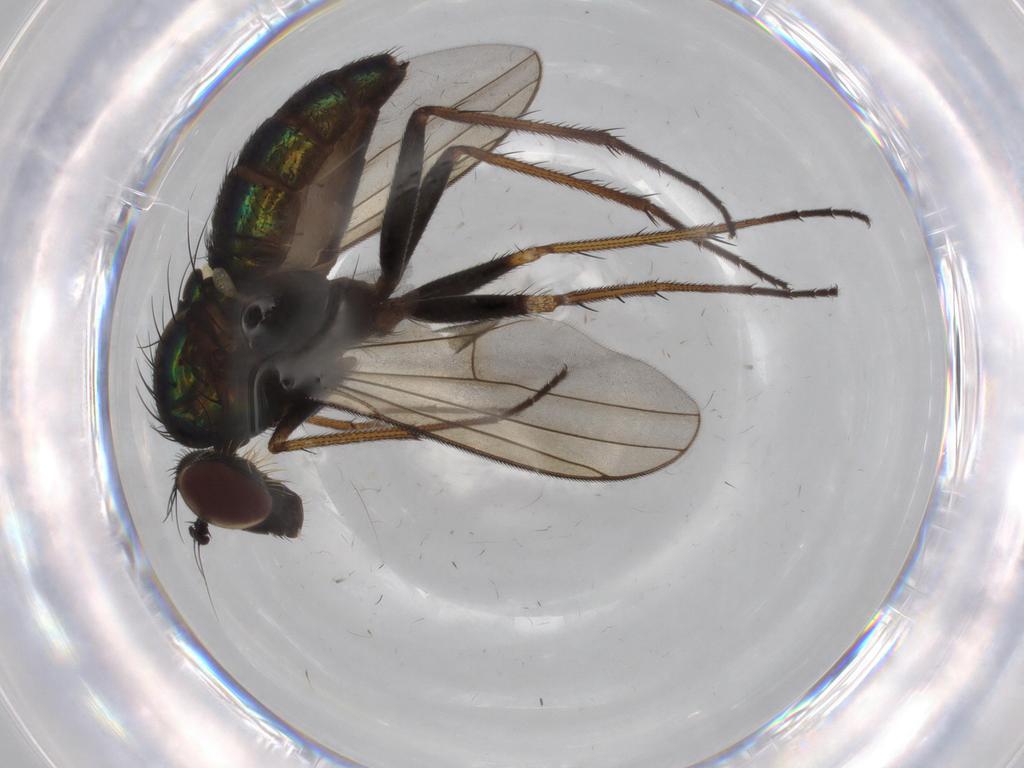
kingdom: Animalia
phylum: Arthropoda
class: Insecta
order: Diptera
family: Dolichopodidae
